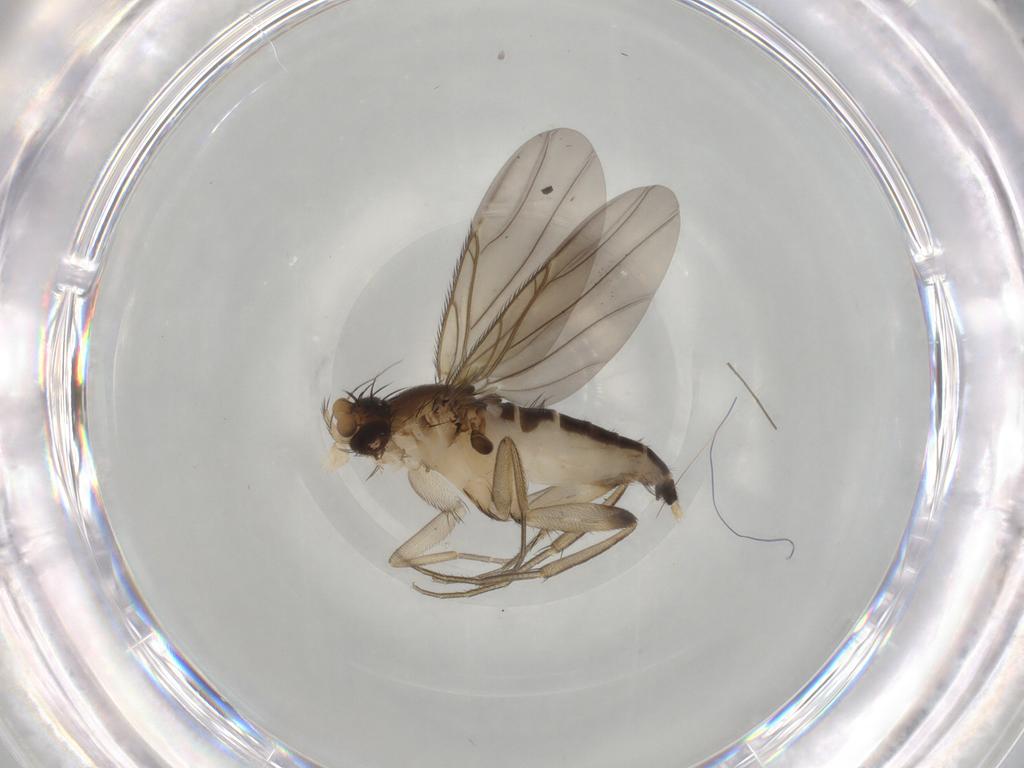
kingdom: Animalia
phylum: Arthropoda
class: Insecta
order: Diptera
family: Phoridae
